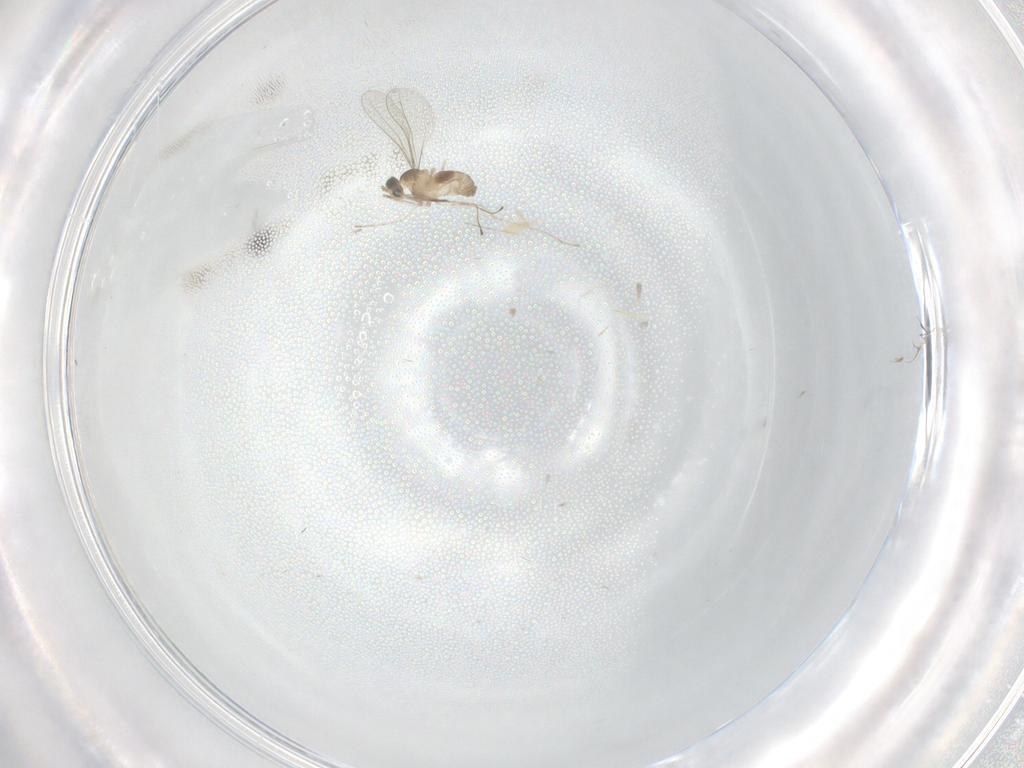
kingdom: Animalia
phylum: Arthropoda
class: Insecta
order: Diptera
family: Cecidomyiidae
